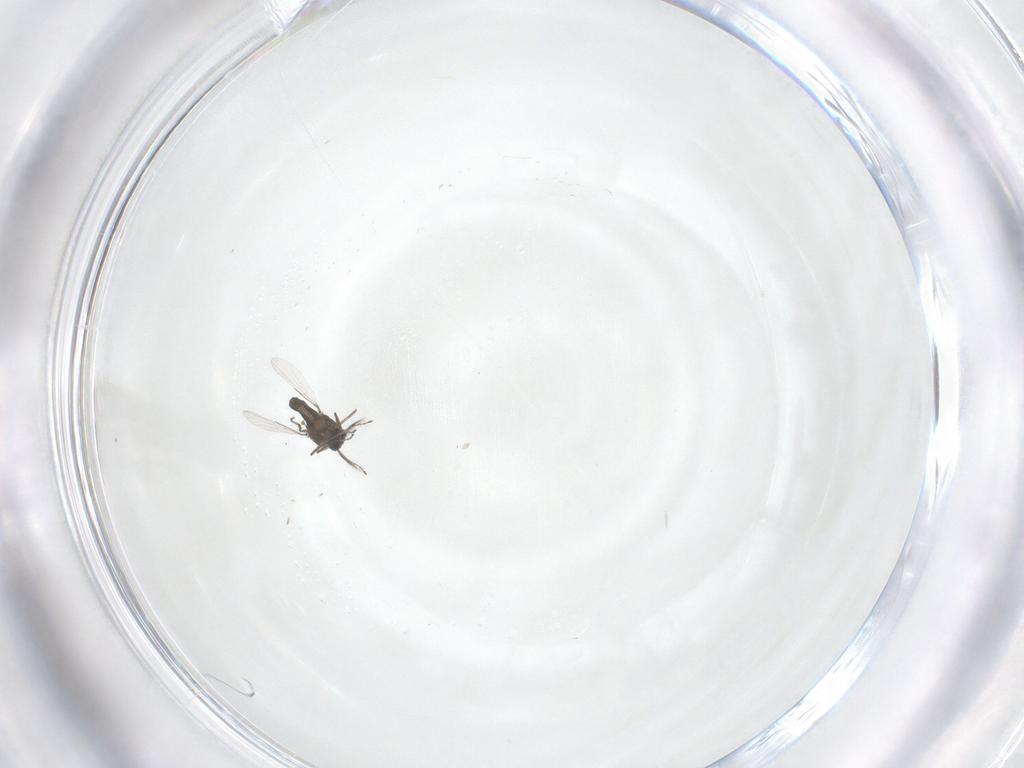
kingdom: Animalia
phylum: Arthropoda
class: Insecta
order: Diptera
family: Ceratopogonidae
